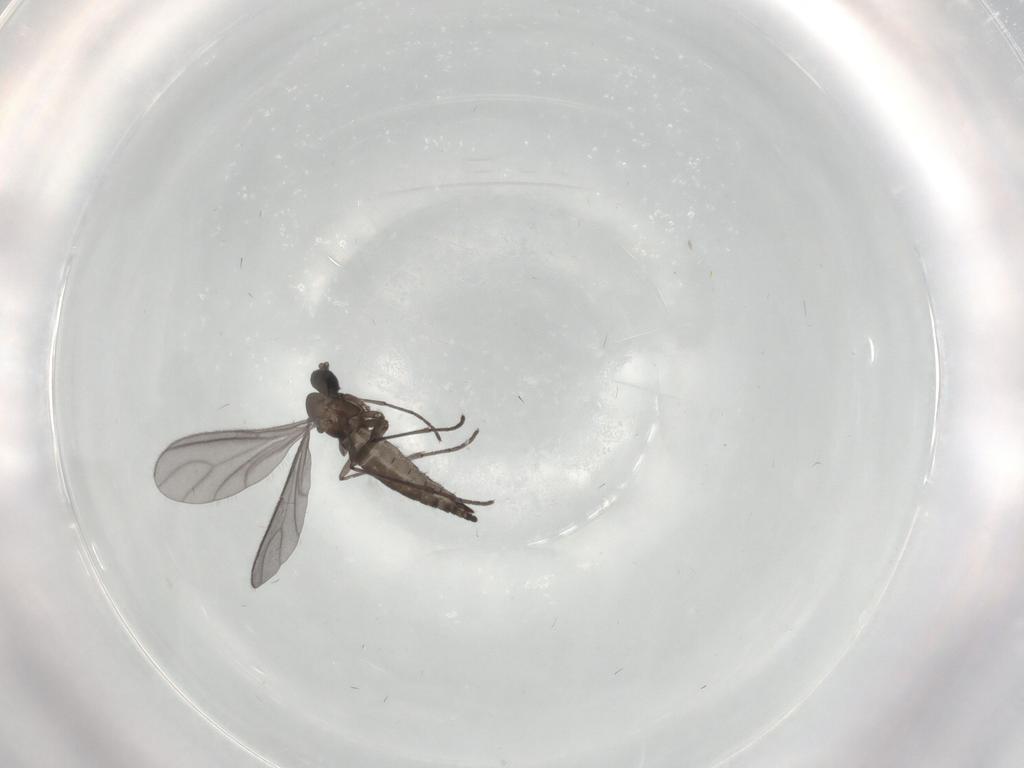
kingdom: Animalia
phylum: Arthropoda
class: Insecta
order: Diptera
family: Sciaridae
